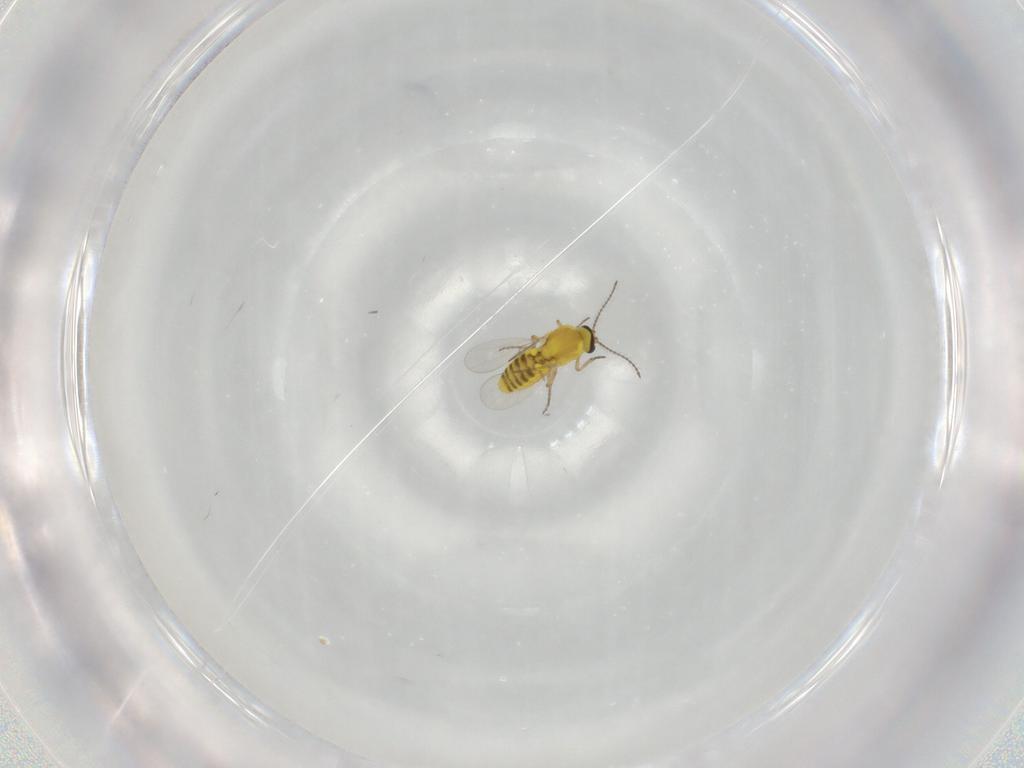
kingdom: Animalia
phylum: Arthropoda
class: Insecta
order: Diptera
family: Ceratopogonidae
